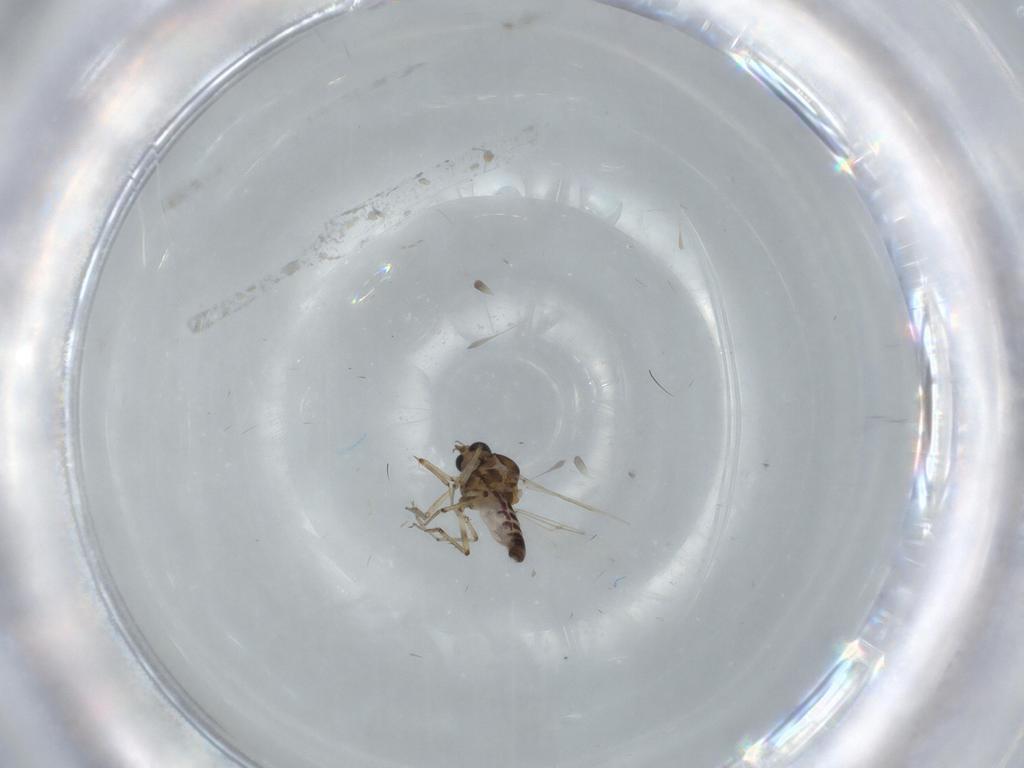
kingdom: Animalia
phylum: Arthropoda
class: Insecta
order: Diptera
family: Ceratopogonidae
